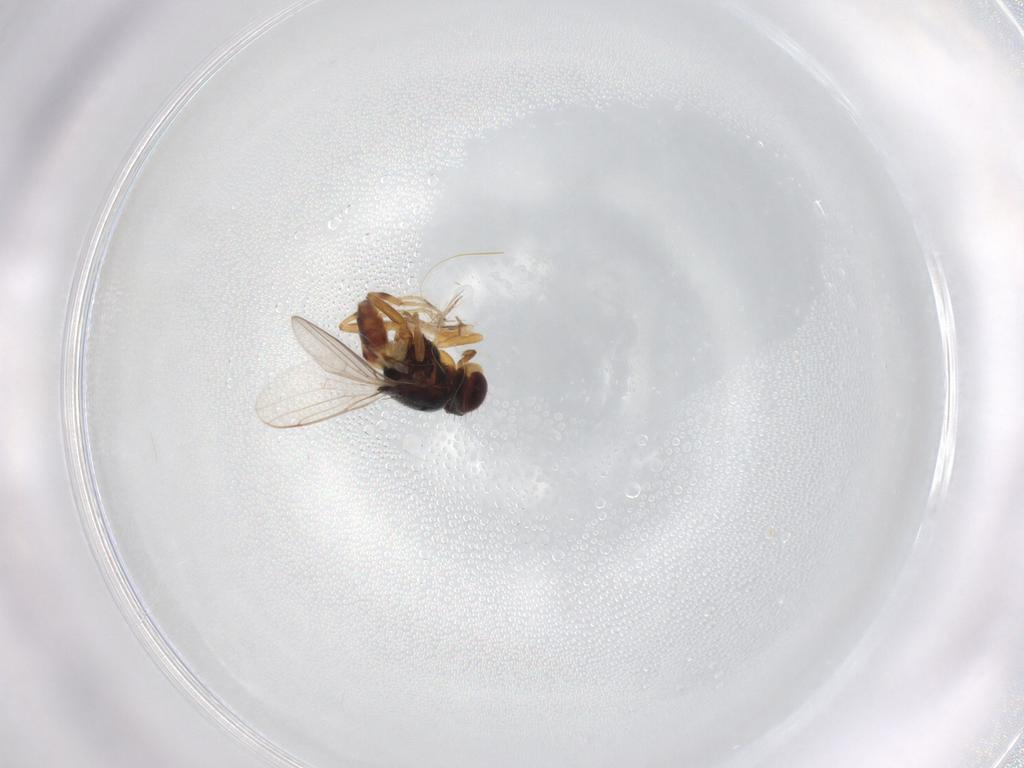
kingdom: Animalia
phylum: Arthropoda
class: Insecta
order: Diptera
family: Chloropidae
